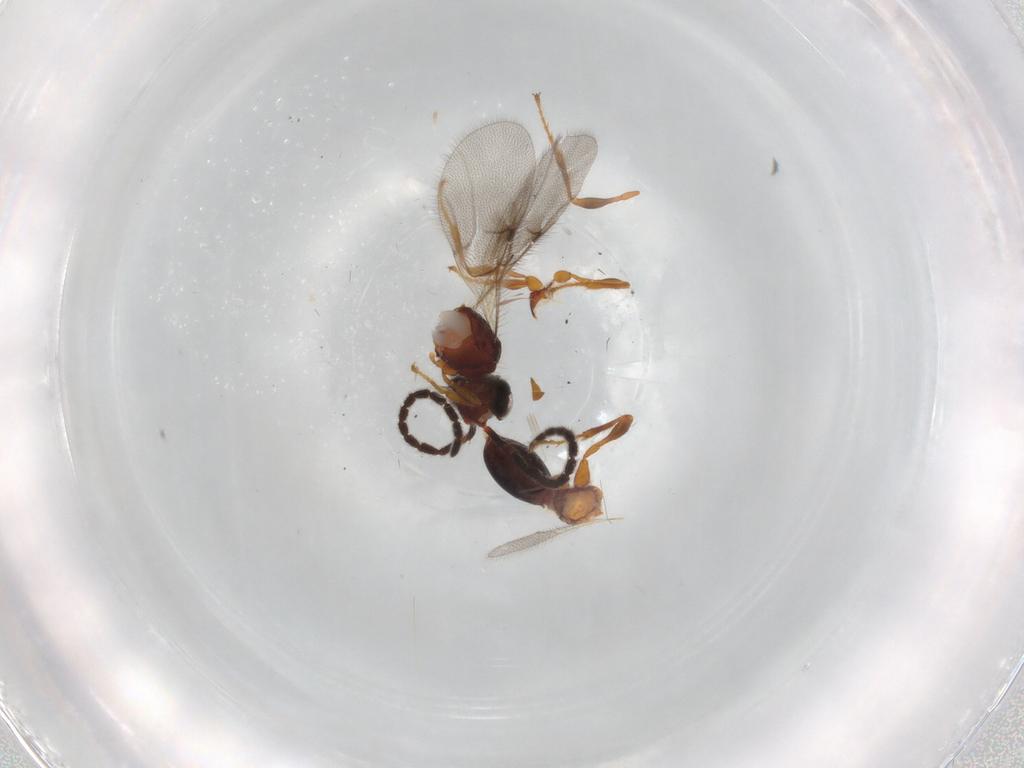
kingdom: Animalia
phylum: Arthropoda
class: Insecta
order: Hymenoptera
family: Diapriidae
